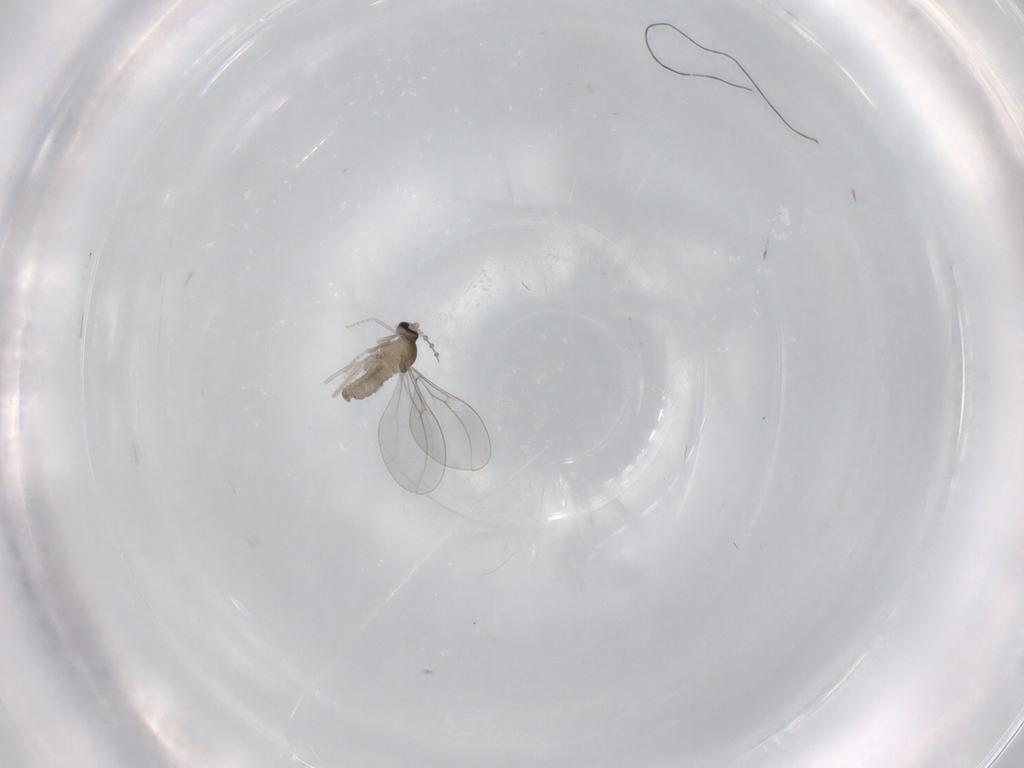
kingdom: Animalia
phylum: Arthropoda
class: Insecta
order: Diptera
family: Cecidomyiidae
